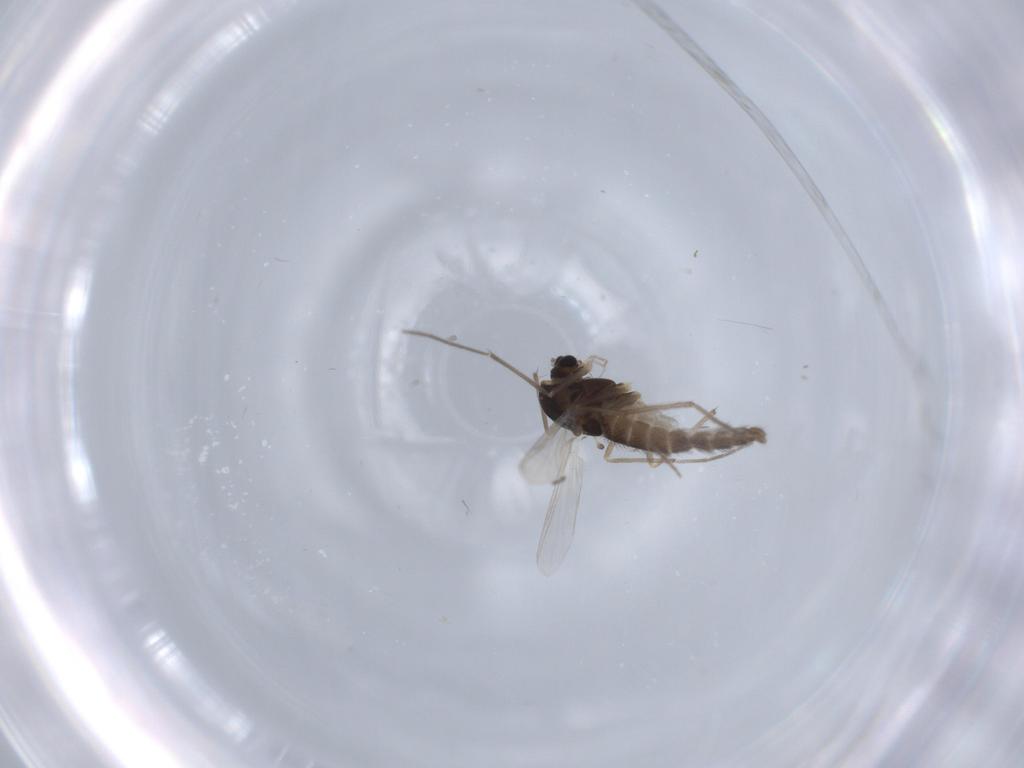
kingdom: Animalia
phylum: Arthropoda
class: Insecta
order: Diptera
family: Chironomidae
